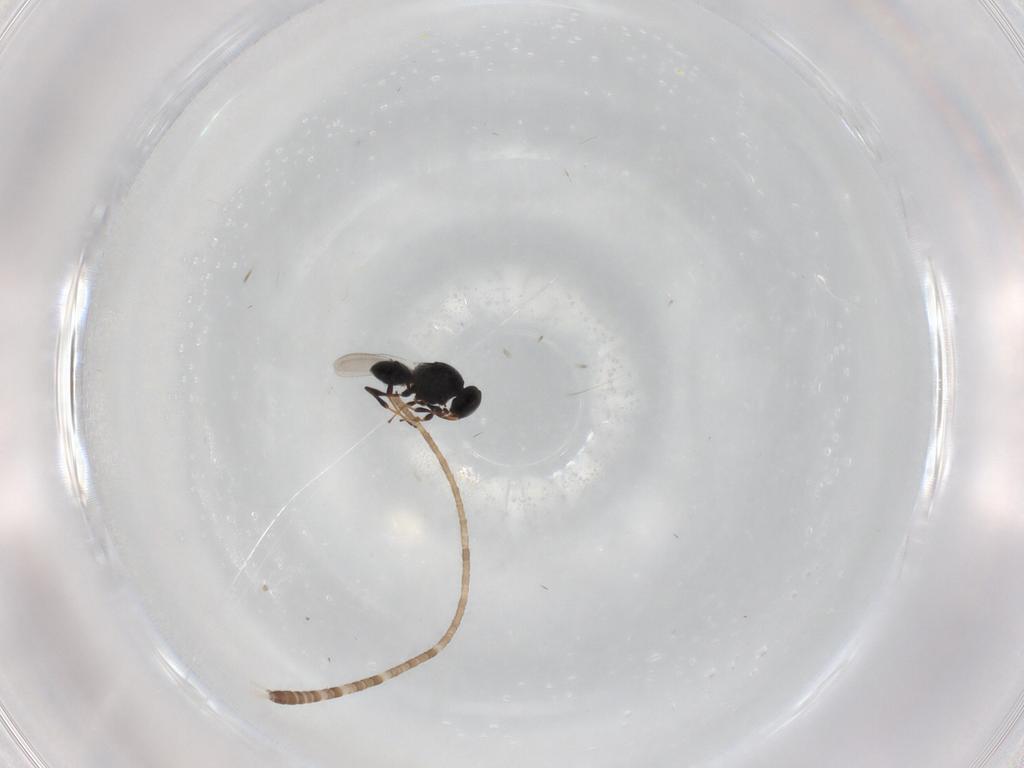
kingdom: Animalia
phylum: Arthropoda
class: Insecta
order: Hymenoptera
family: Platygastridae
